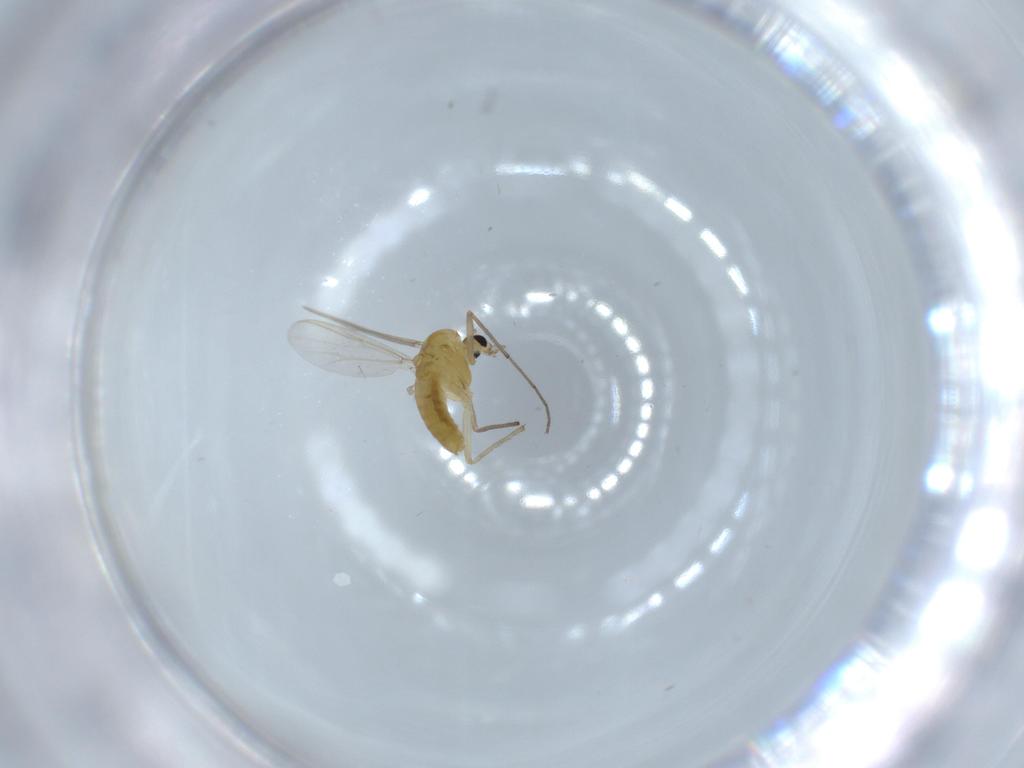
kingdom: Animalia
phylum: Arthropoda
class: Insecta
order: Diptera
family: Chironomidae
